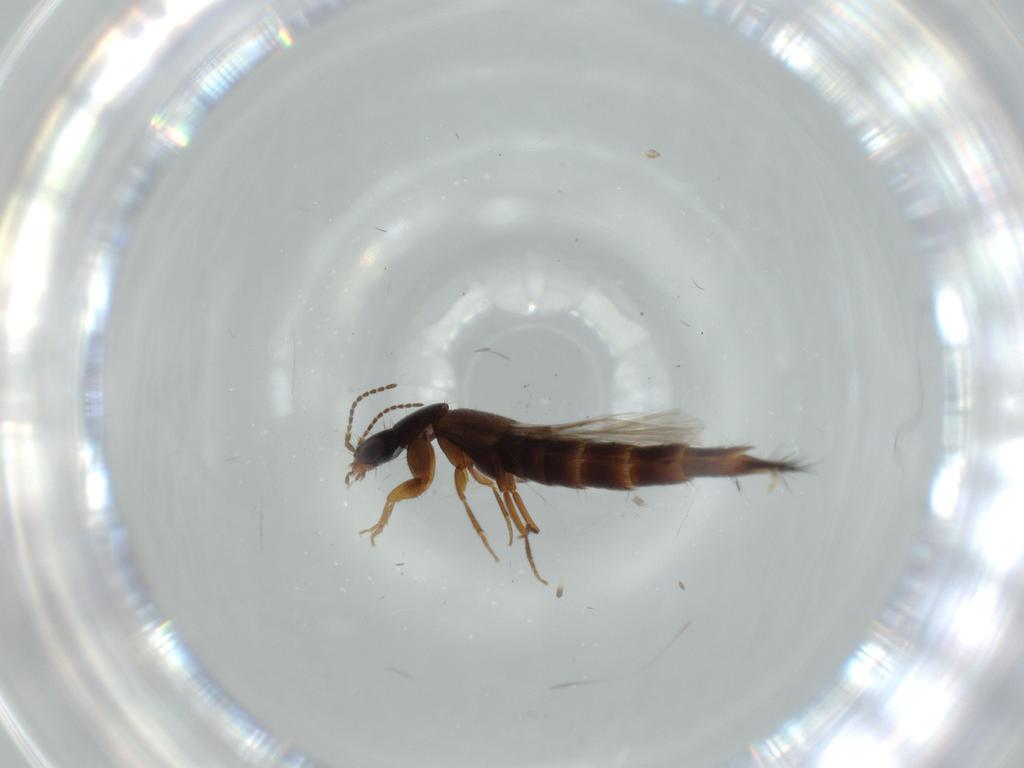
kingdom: Animalia
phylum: Arthropoda
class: Insecta
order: Coleoptera
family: Staphylinidae
